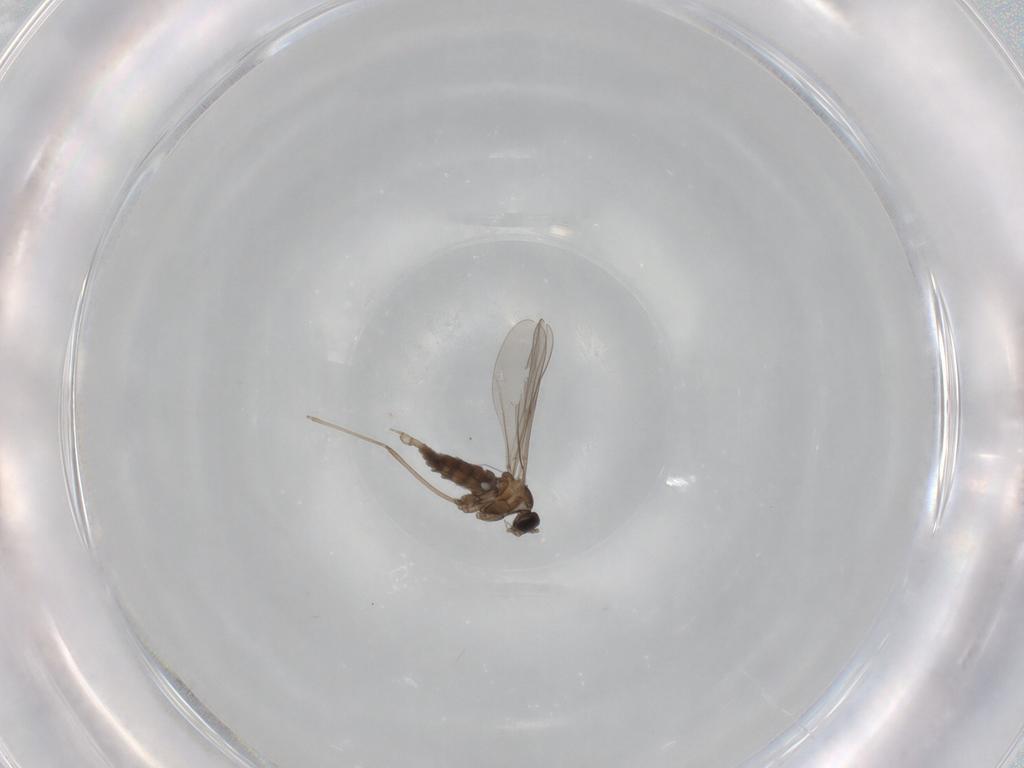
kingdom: Animalia
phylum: Arthropoda
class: Insecta
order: Diptera
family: Cecidomyiidae
